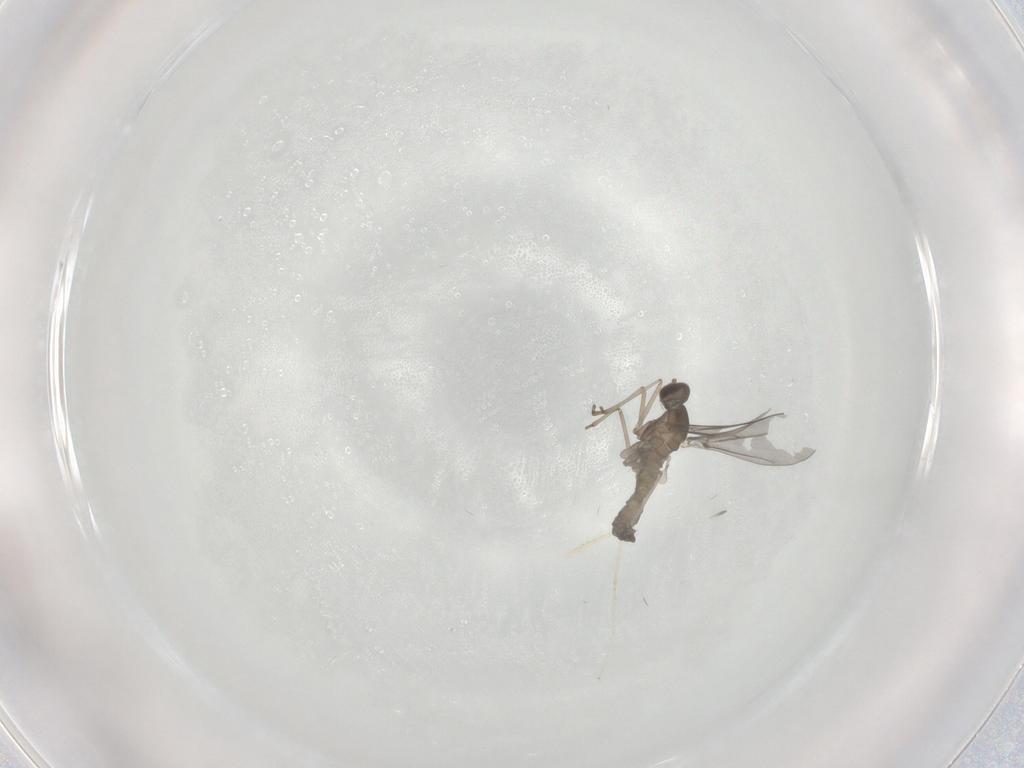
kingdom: Animalia
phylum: Arthropoda
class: Insecta
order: Diptera
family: Cecidomyiidae
